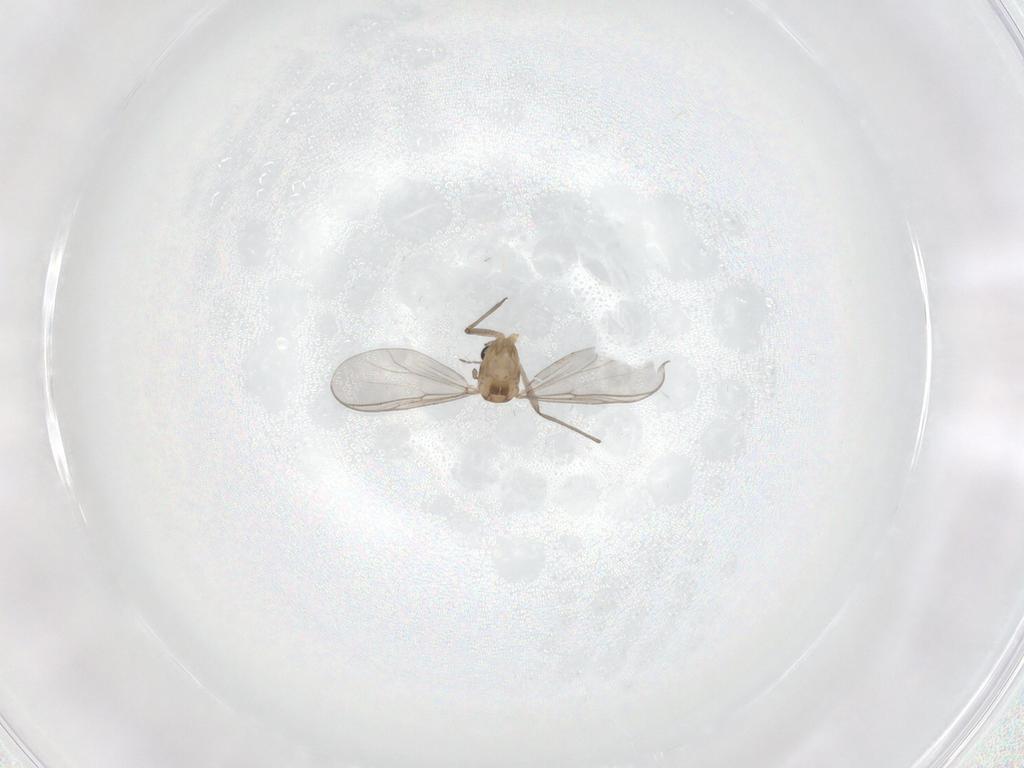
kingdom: Animalia
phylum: Arthropoda
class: Insecta
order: Diptera
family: Chironomidae
